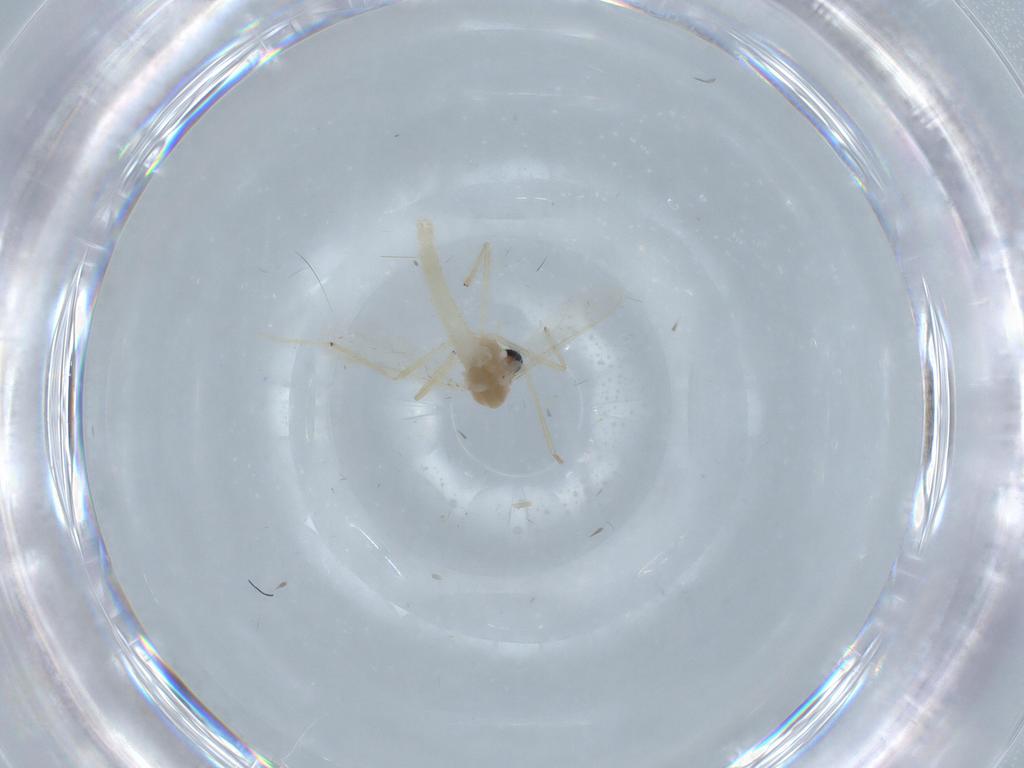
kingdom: Animalia
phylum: Arthropoda
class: Insecta
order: Diptera
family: Chironomidae
